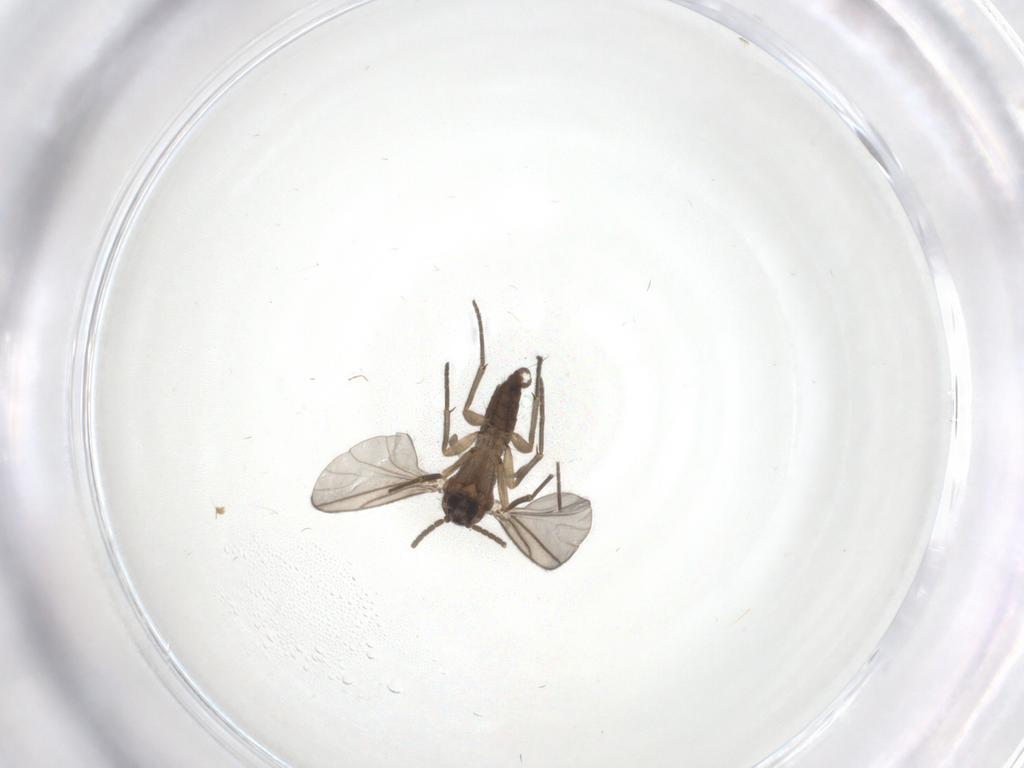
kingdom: Animalia
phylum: Arthropoda
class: Insecta
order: Diptera
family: Sciaridae
